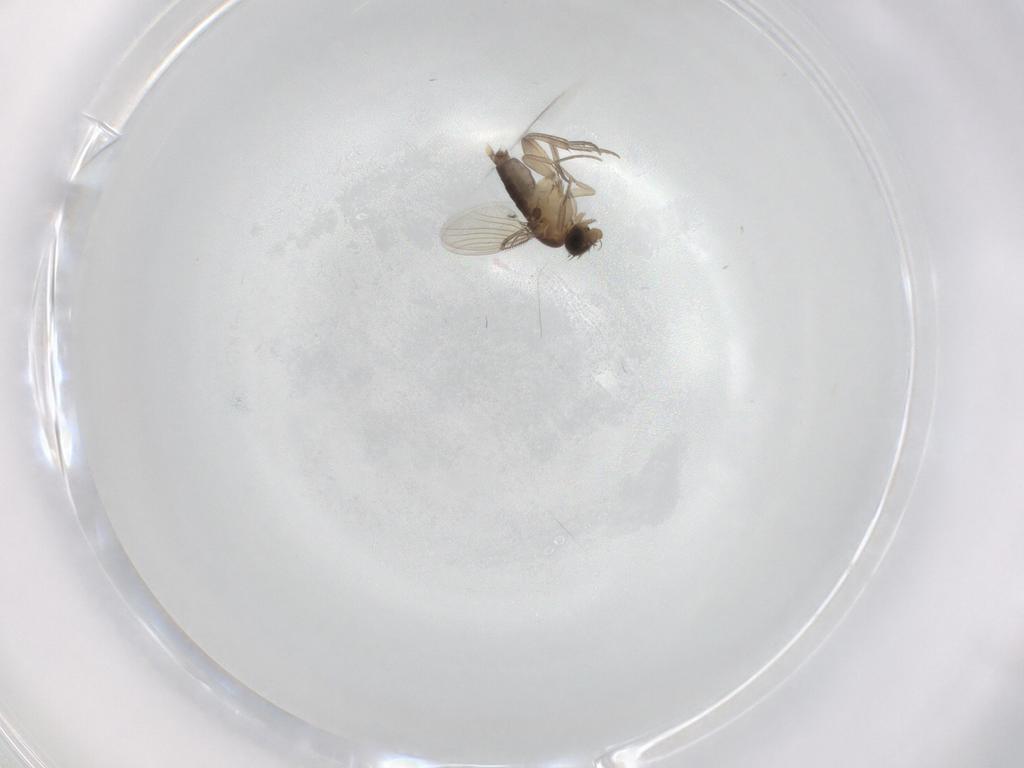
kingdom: Animalia
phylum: Arthropoda
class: Insecta
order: Diptera
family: Phoridae
